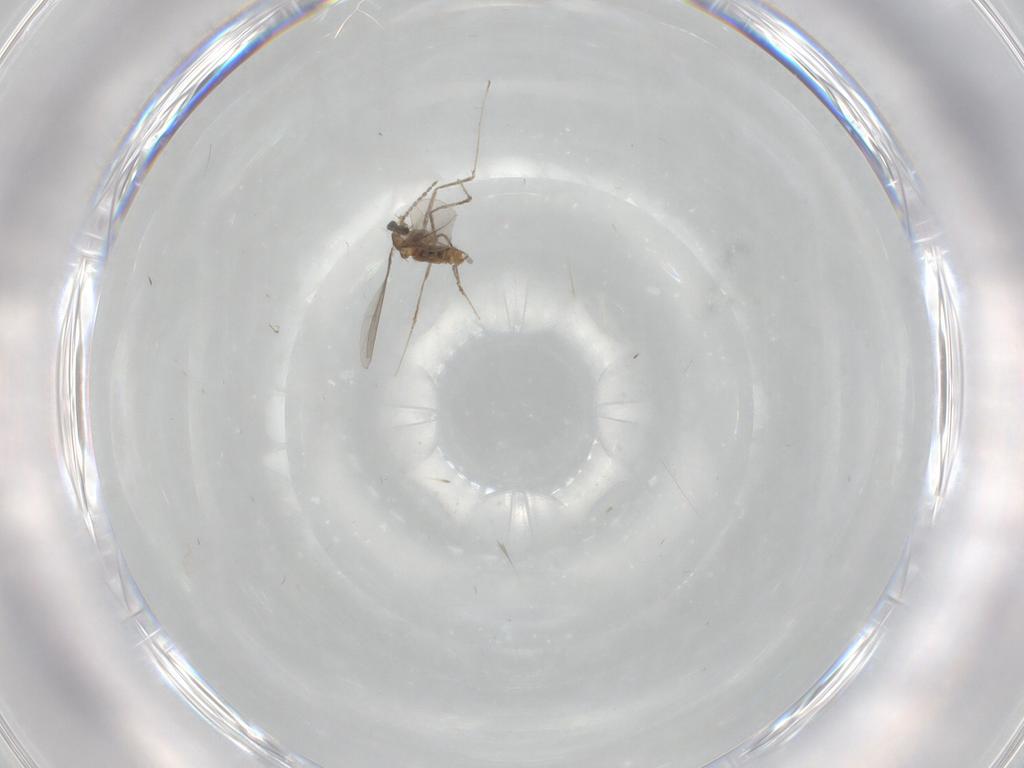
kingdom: Animalia
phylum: Arthropoda
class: Insecta
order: Diptera
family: Cecidomyiidae
